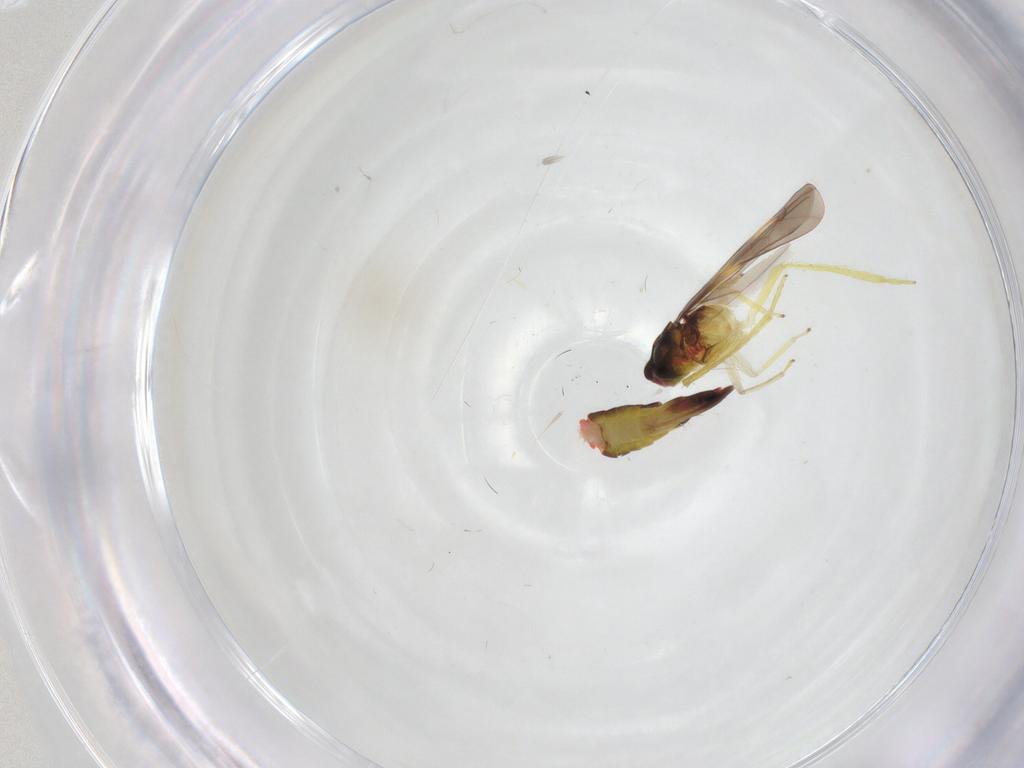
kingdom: Animalia
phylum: Arthropoda
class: Insecta
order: Hemiptera
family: Cicadellidae
